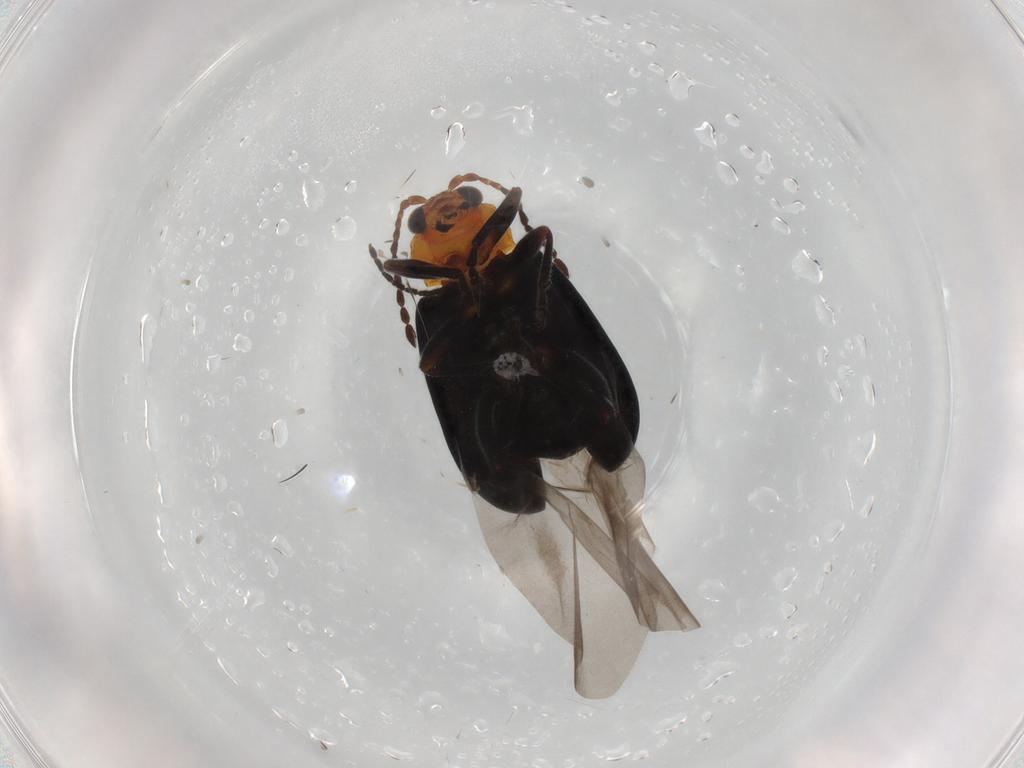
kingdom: Animalia
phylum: Arthropoda
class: Insecta
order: Coleoptera
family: Chrysomelidae
